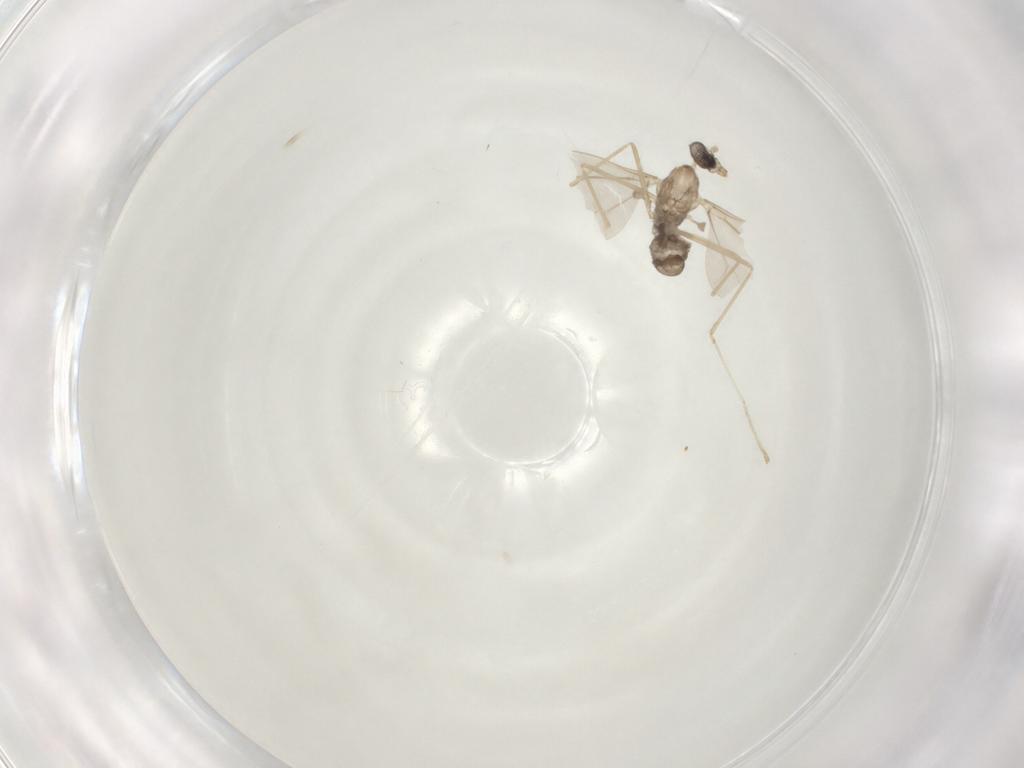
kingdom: Animalia
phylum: Arthropoda
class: Insecta
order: Diptera
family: Cecidomyiidae
